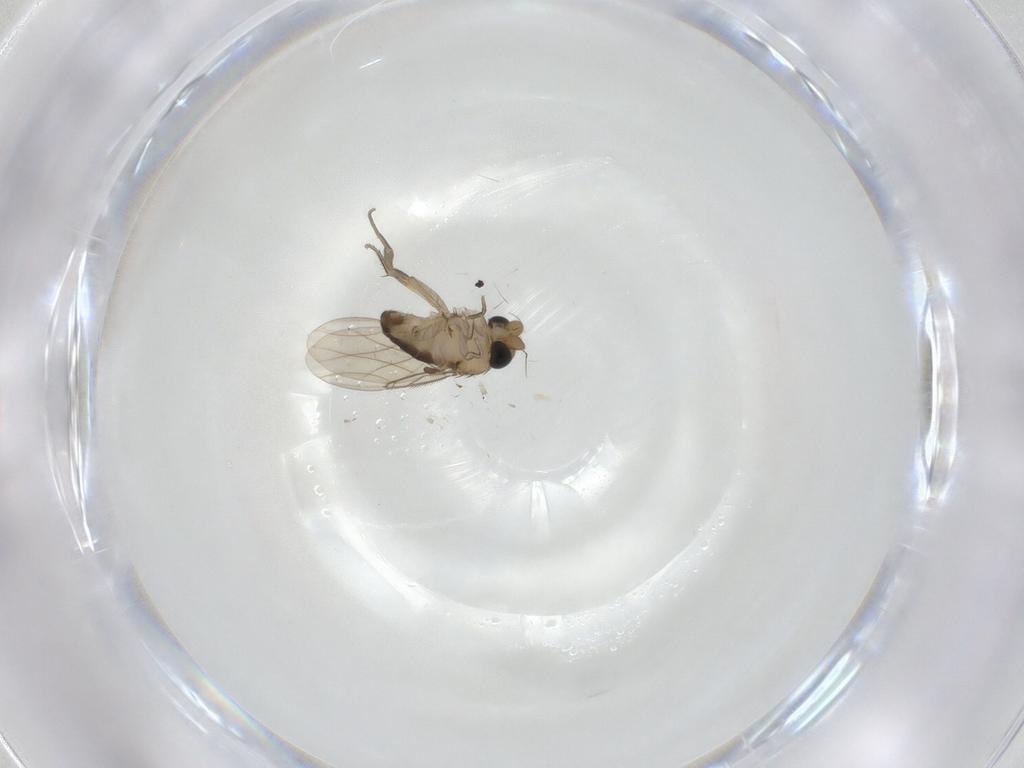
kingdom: Animalia
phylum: Arthropoda
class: Insecta
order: Diptera
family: Phoridae
